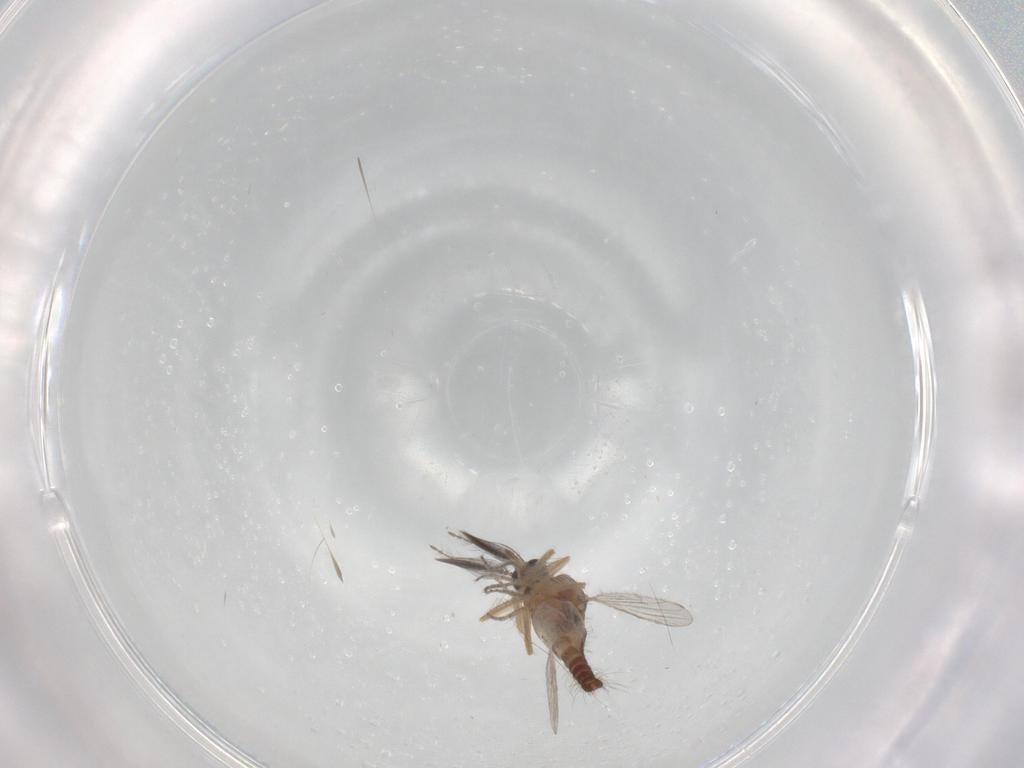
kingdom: Animalia
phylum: Arthropoda
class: Insecta
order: Diptera
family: Ceratopogonidae
